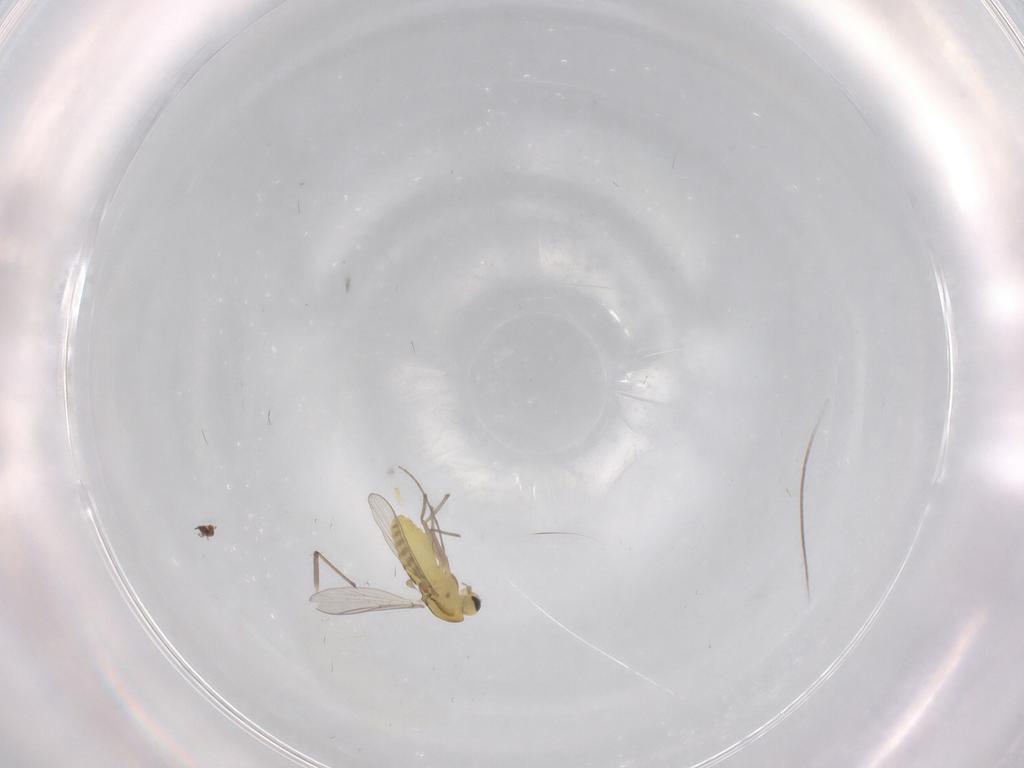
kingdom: Animalia
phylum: Arthropoda
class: Insecta
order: Diptera
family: Chironomidae
